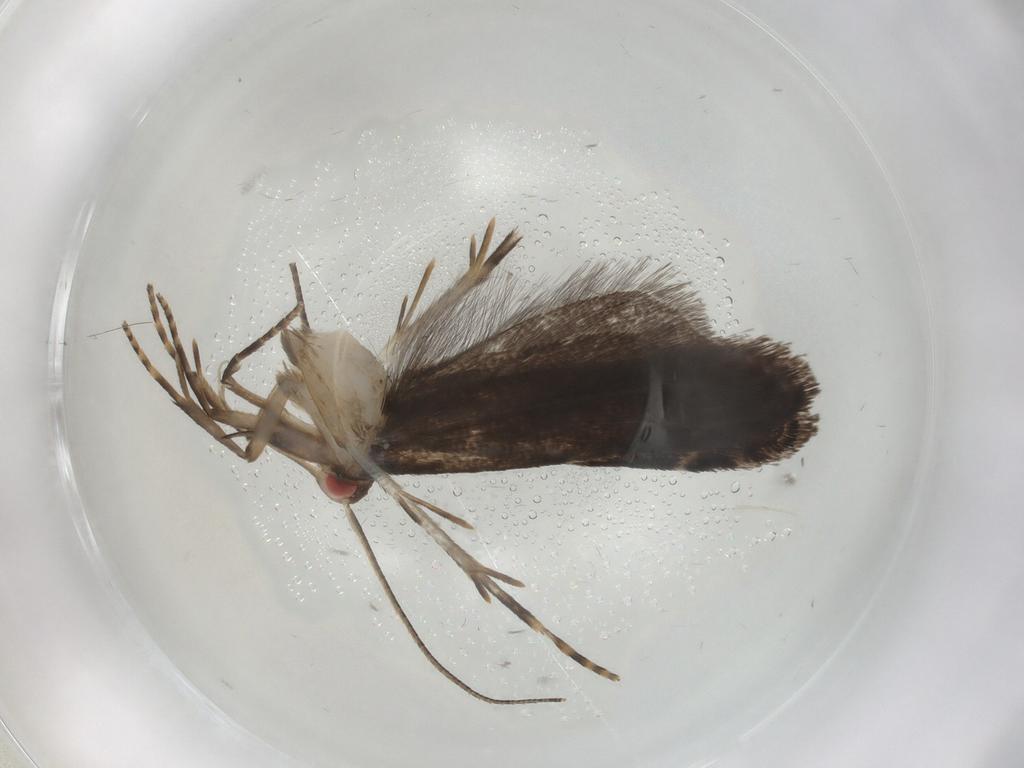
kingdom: Animalia
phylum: Arthropoda
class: Insecta
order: Lepidoptera
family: Gelechiidae
